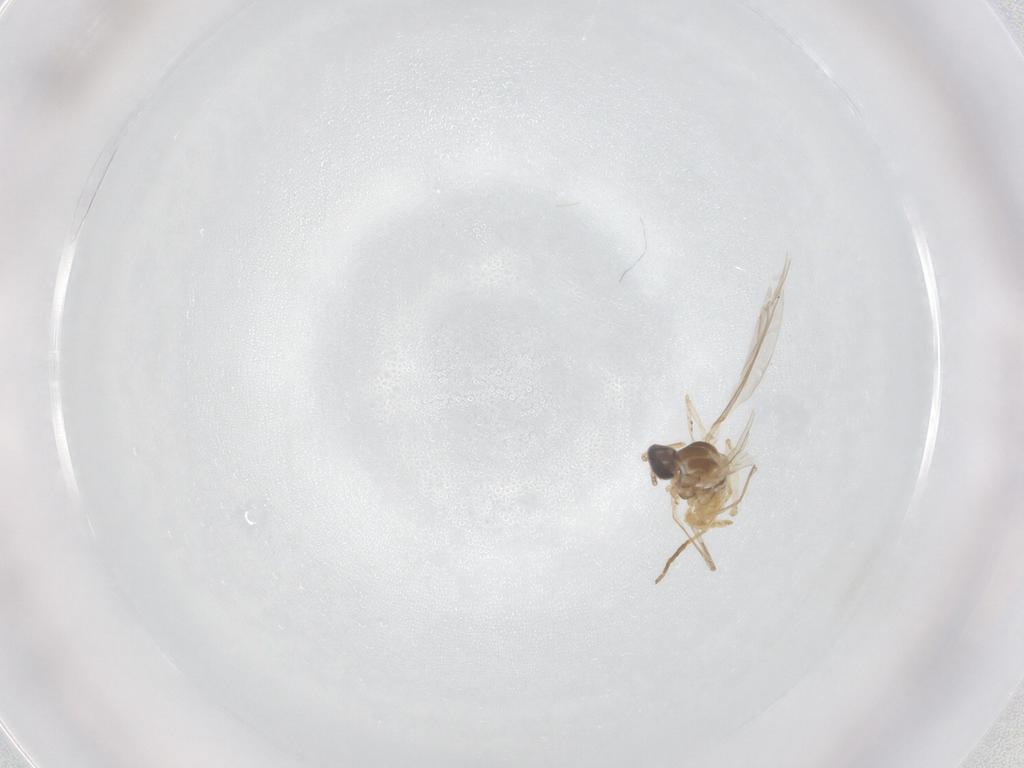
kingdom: Animalia
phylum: Arthropoda
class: Insecta
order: Diptera
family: Cecidomyiidae
